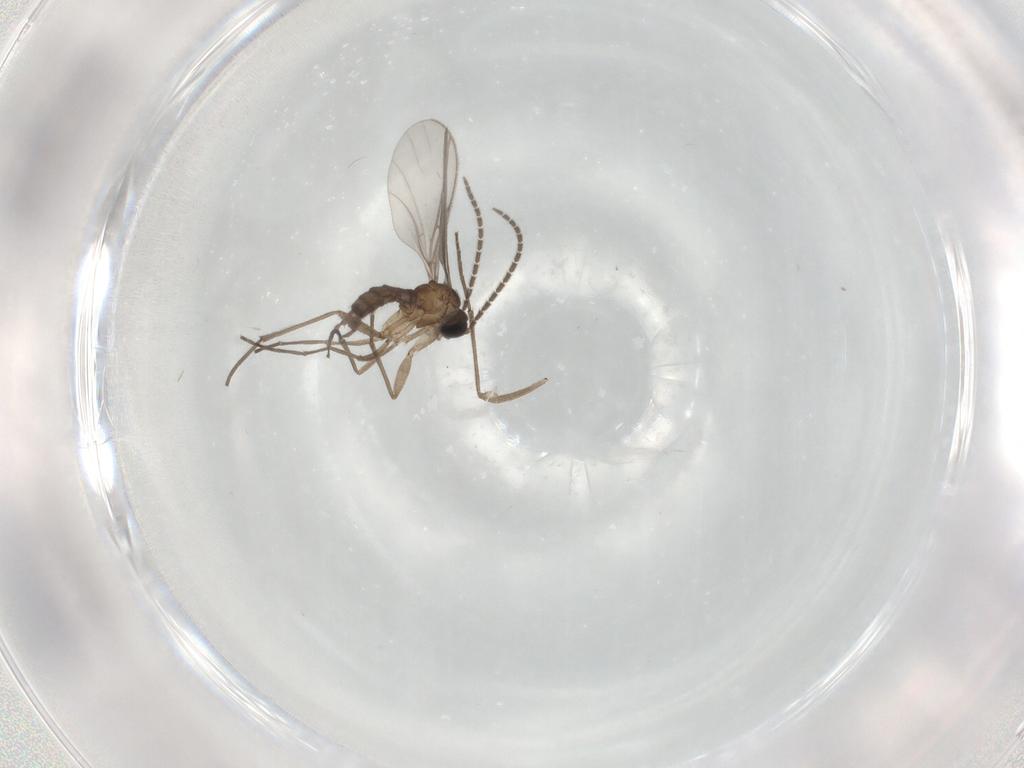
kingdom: Animalia
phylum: Arthropoda
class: Insecta
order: Diptera
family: Sciaridae
